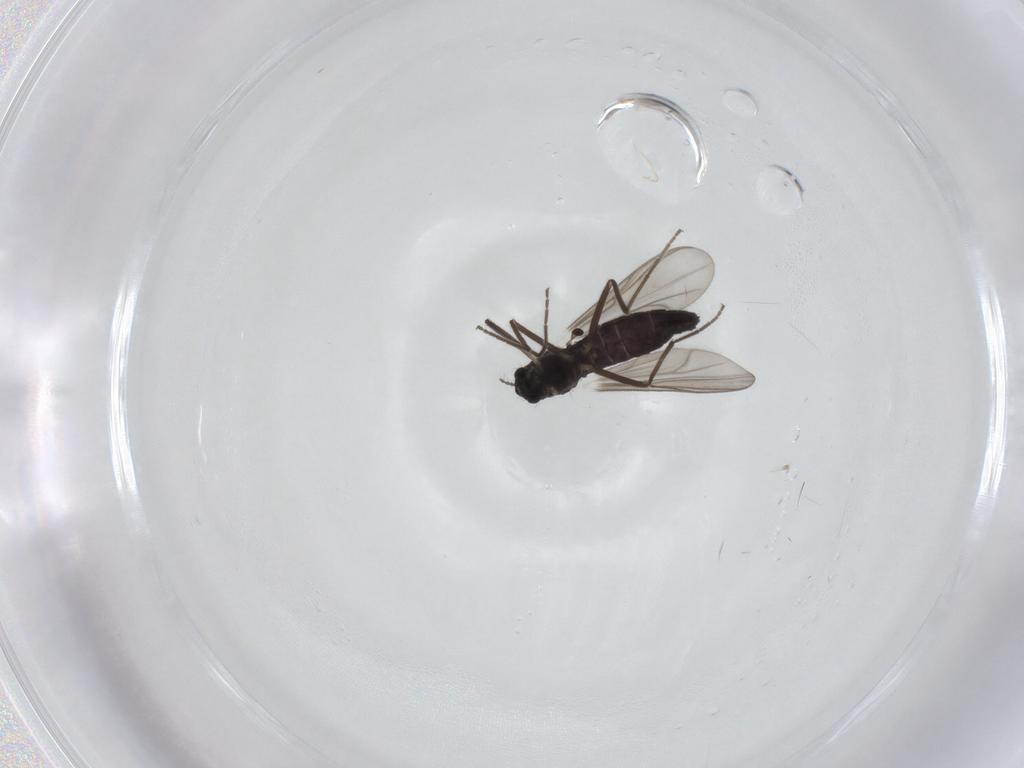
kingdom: Animalia
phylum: Arthropoda
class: Insecta
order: Diptera
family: Chironomidae
